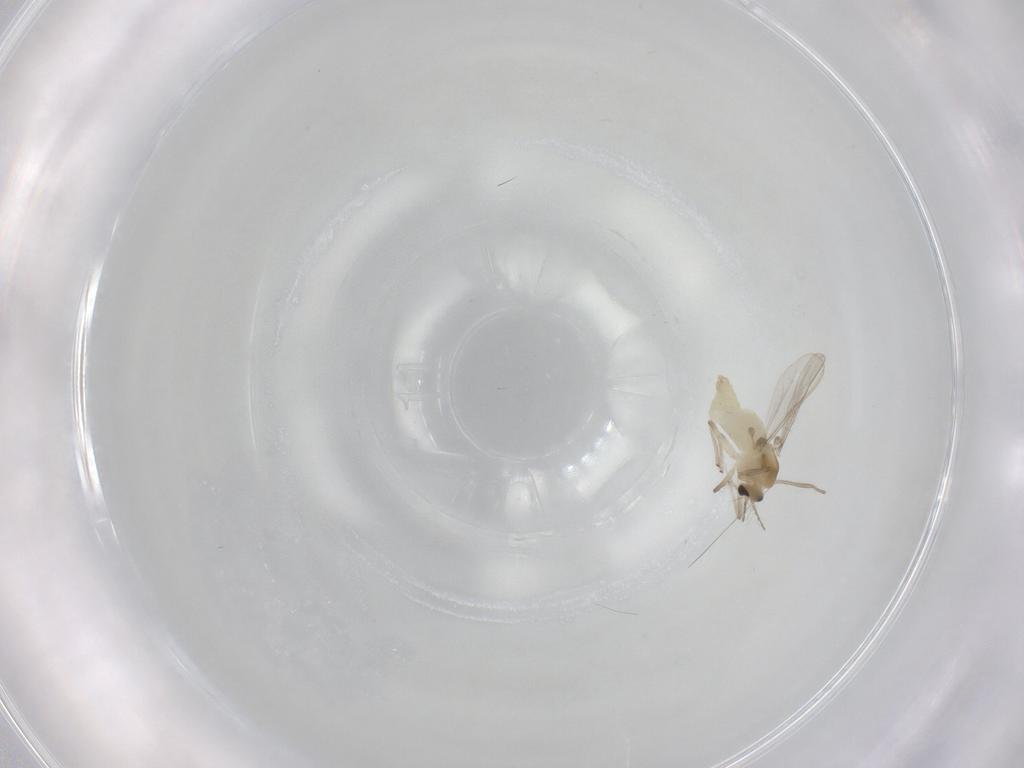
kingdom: Animalia
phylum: Arthropoda
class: Insecta
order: Diptera
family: Chironomidae
